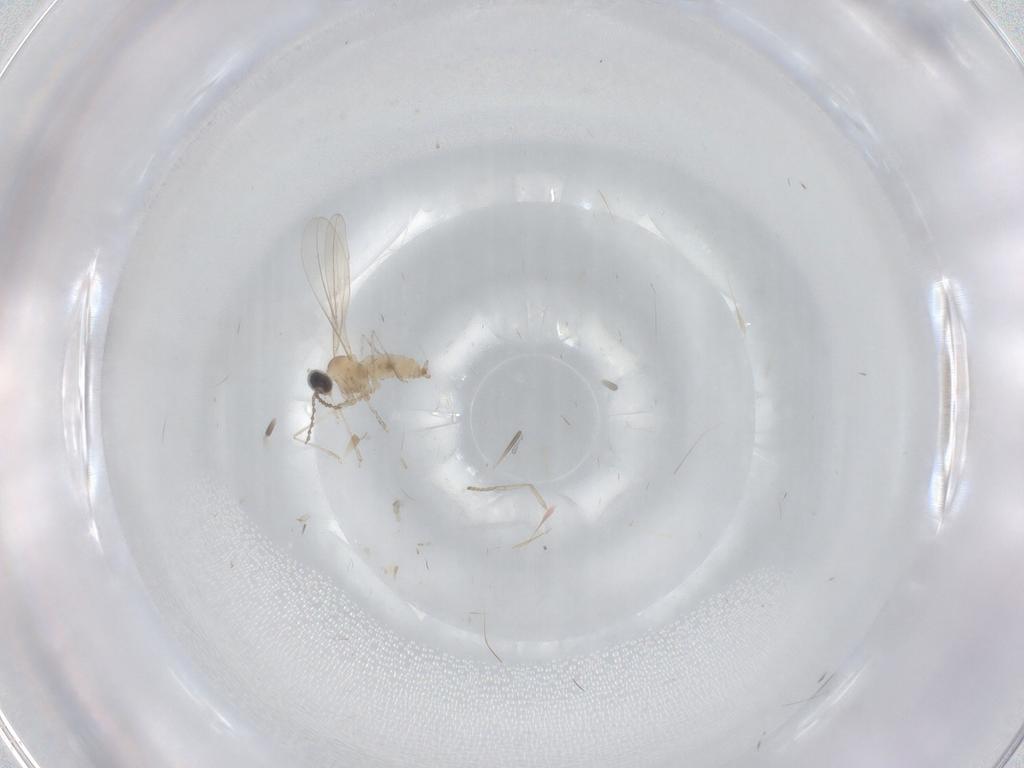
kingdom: Animalia
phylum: Arthropoda
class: Insecta
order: Diptera
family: Cecidomyiidae
